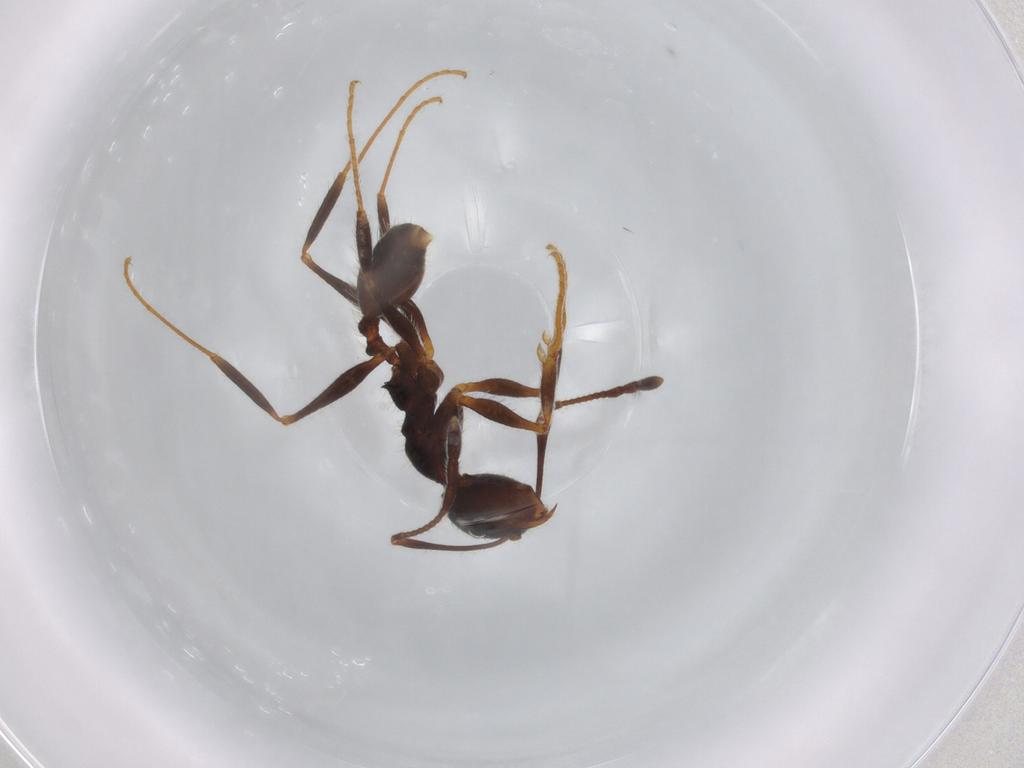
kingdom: Animalia
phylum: Arthropoda
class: Insecta
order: Hymenoptera
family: Formicidae
